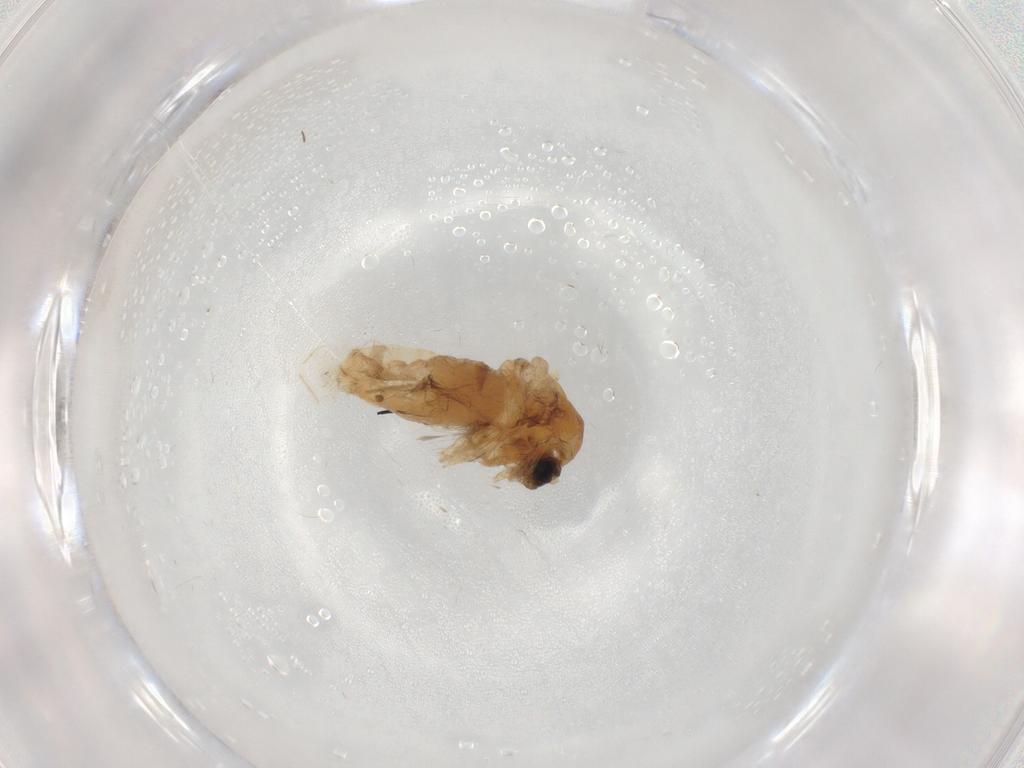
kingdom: Animalia
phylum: Arthropoda
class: Insecta
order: Diptera
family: Chironomidae
